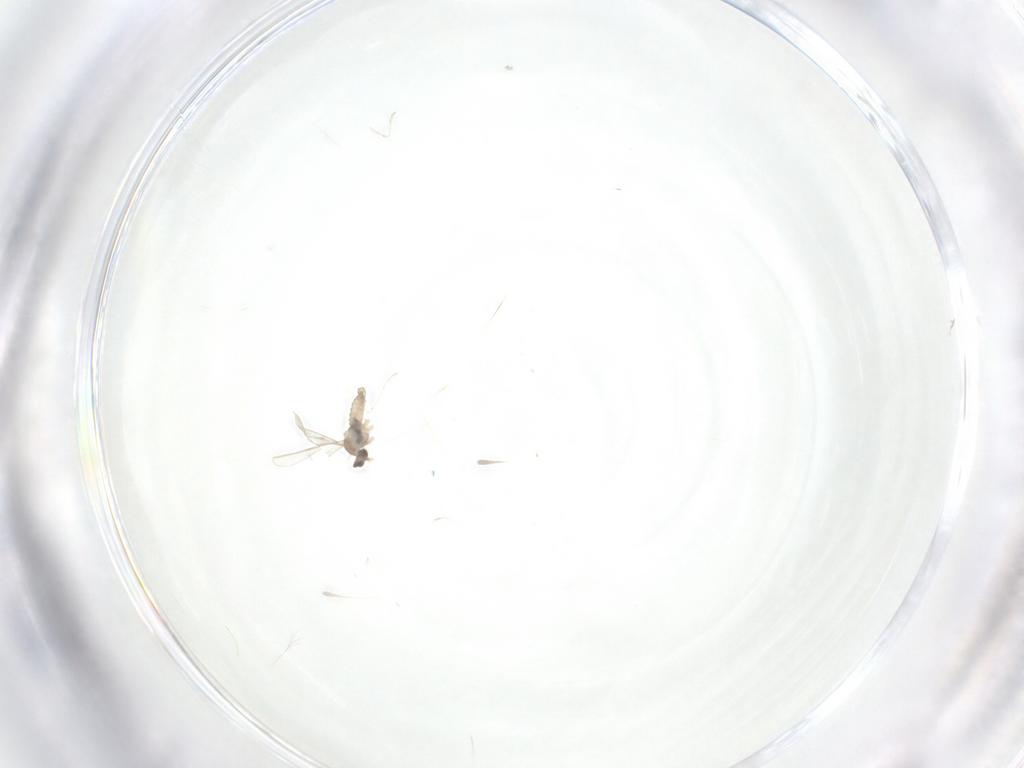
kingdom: Animalia
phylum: Arthropoda
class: Insecta
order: Diptera
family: Cecidomyiidae
